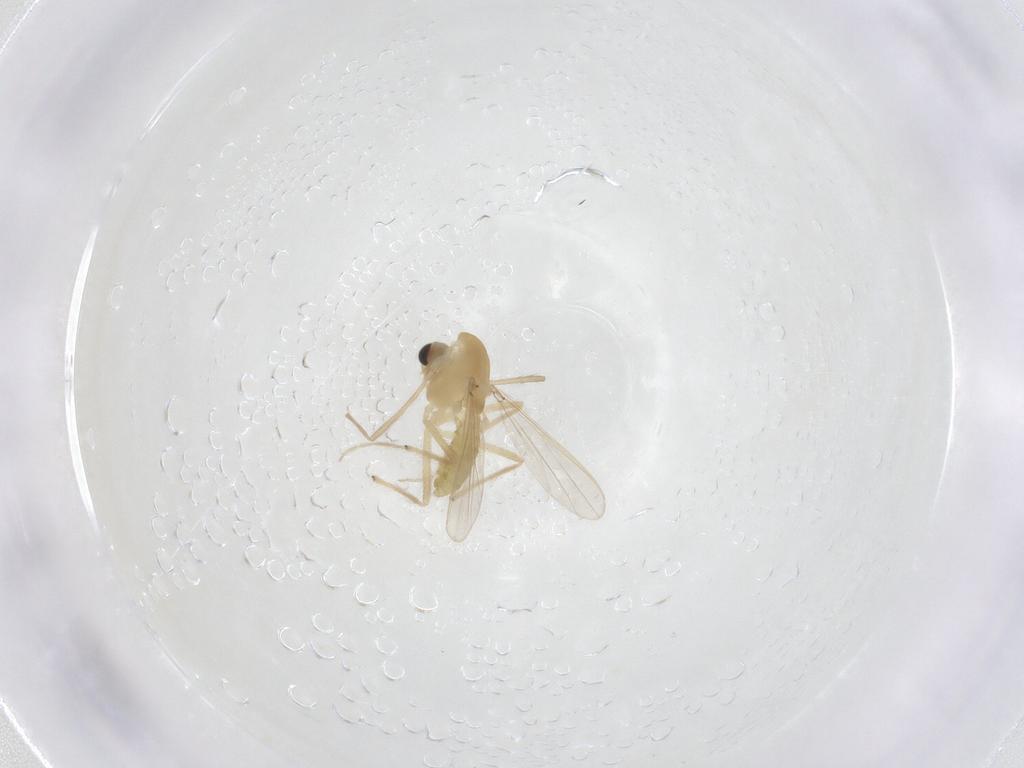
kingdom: Animalia
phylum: Arthropoda
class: Insecta
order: Diptera
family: Chironomidae
